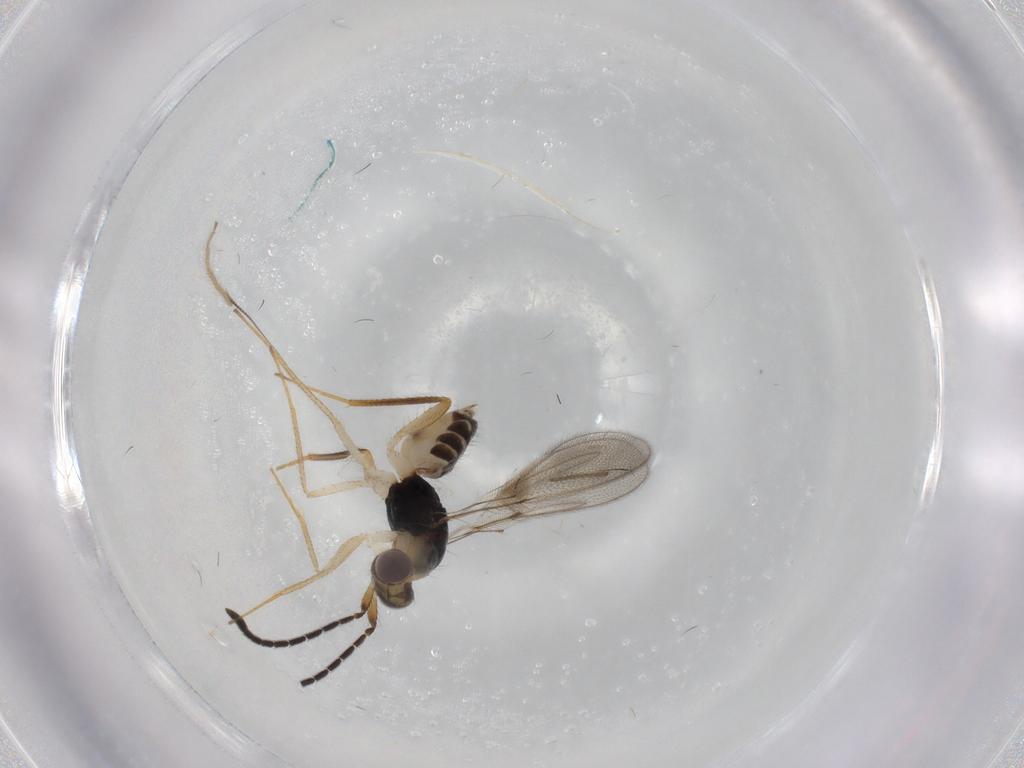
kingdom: Animalia
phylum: Arthropoda
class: Insecta
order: Hymenoptera
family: Mymaridae
